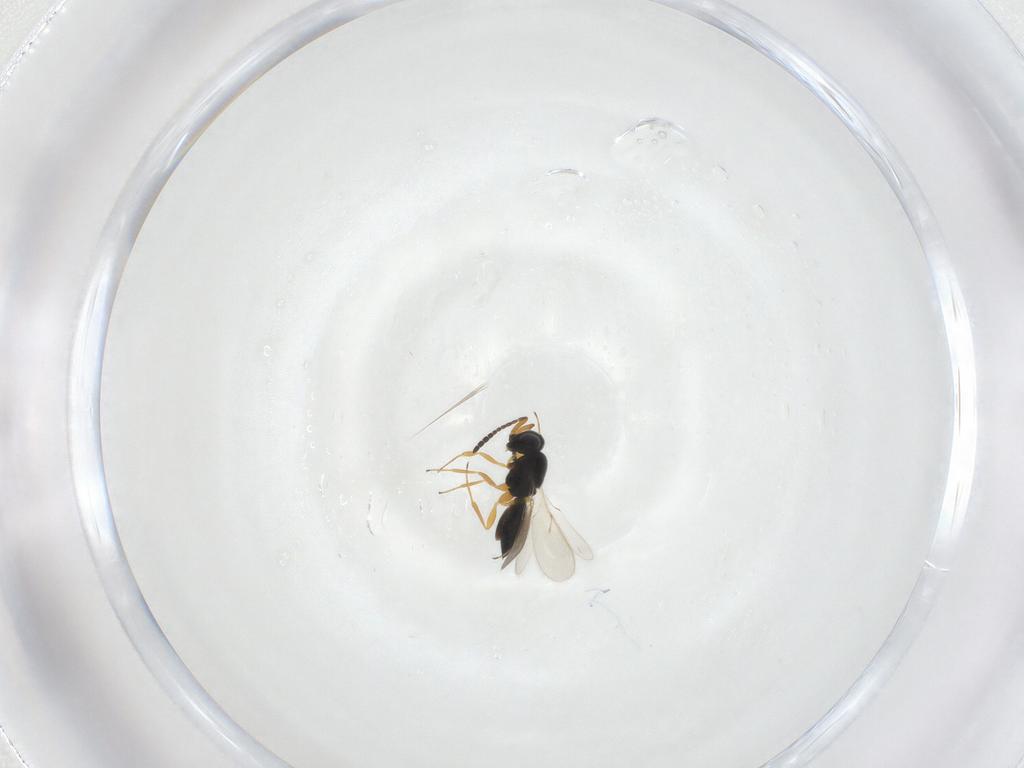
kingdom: Animalia
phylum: Arthropoda
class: Insecta
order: Hymenoptera
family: Scelionidae
